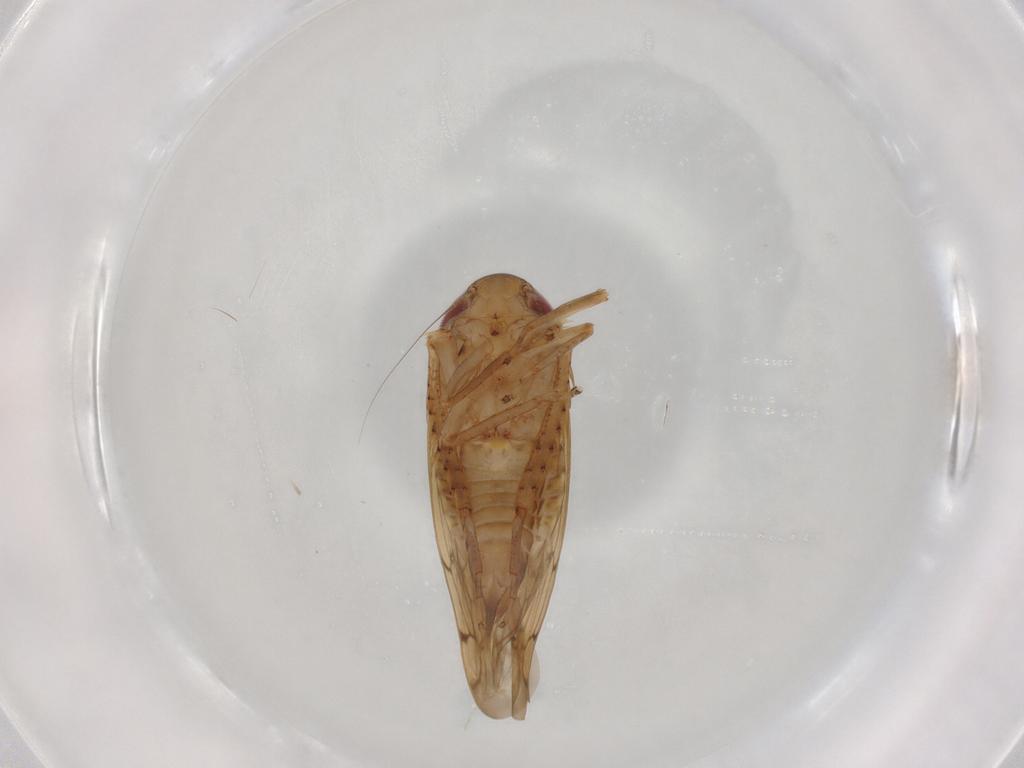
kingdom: Animalia
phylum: Arthropoda
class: Insecta
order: Hemiptera
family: Cicadellidae
